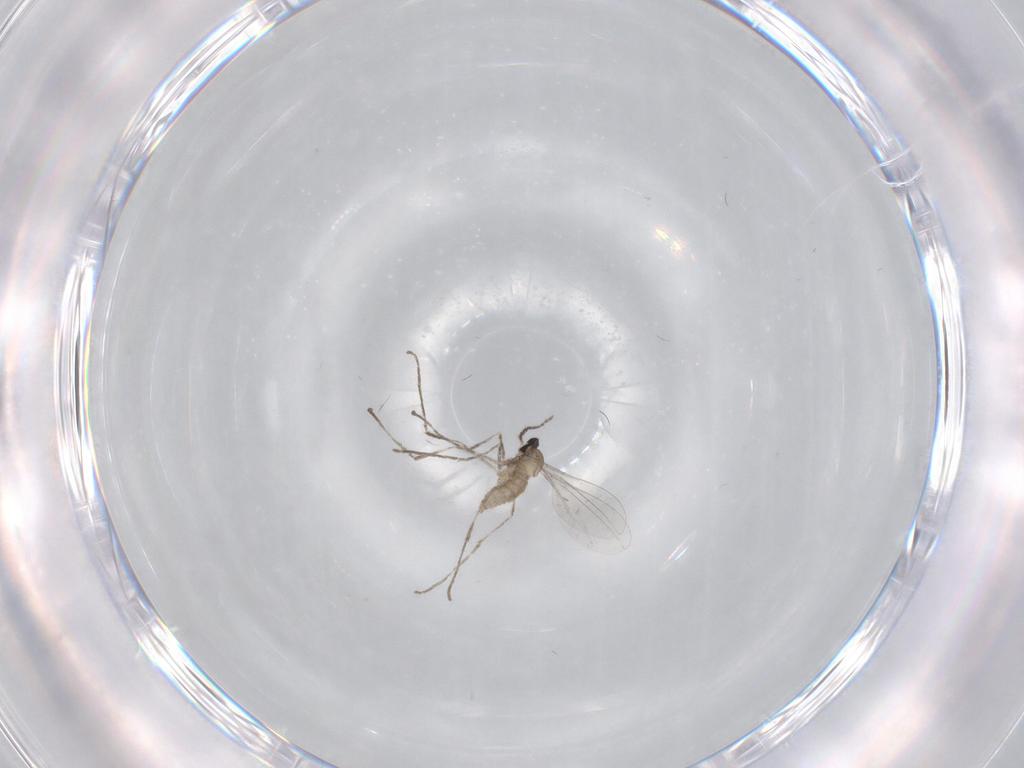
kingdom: Animalia
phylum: Arthropoda
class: Insecta
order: Diptera
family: Cecidomyiidae
